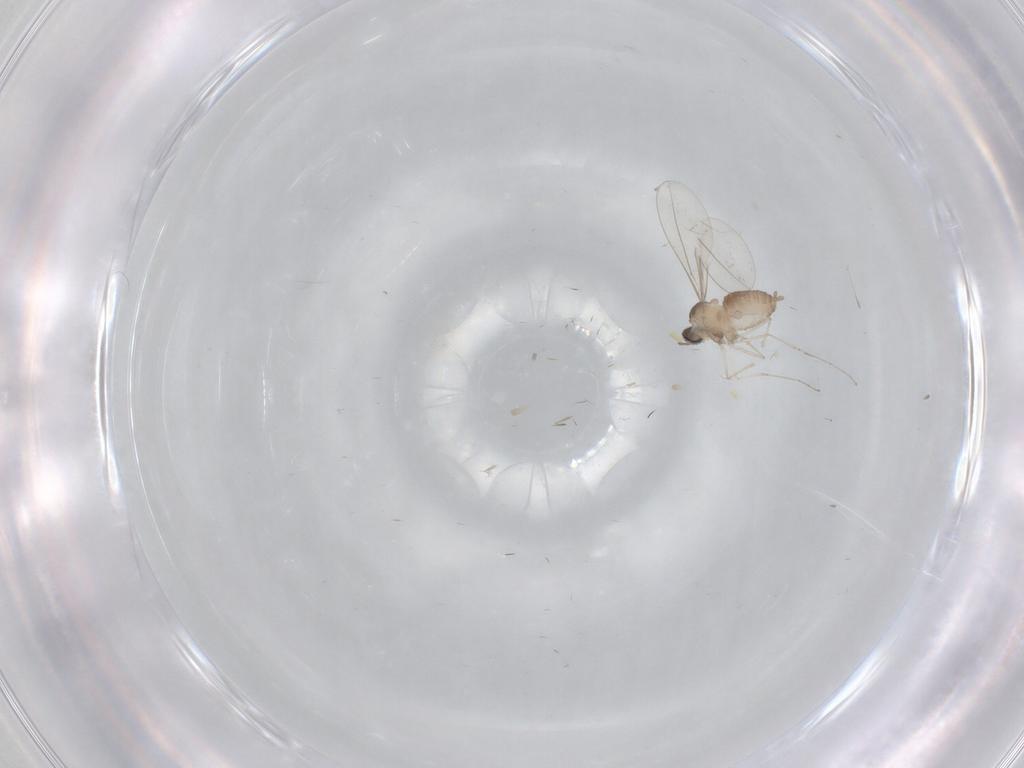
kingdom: Animalia
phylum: Arthropoda
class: Insecta
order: Diptera
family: Cecidomyiidae
